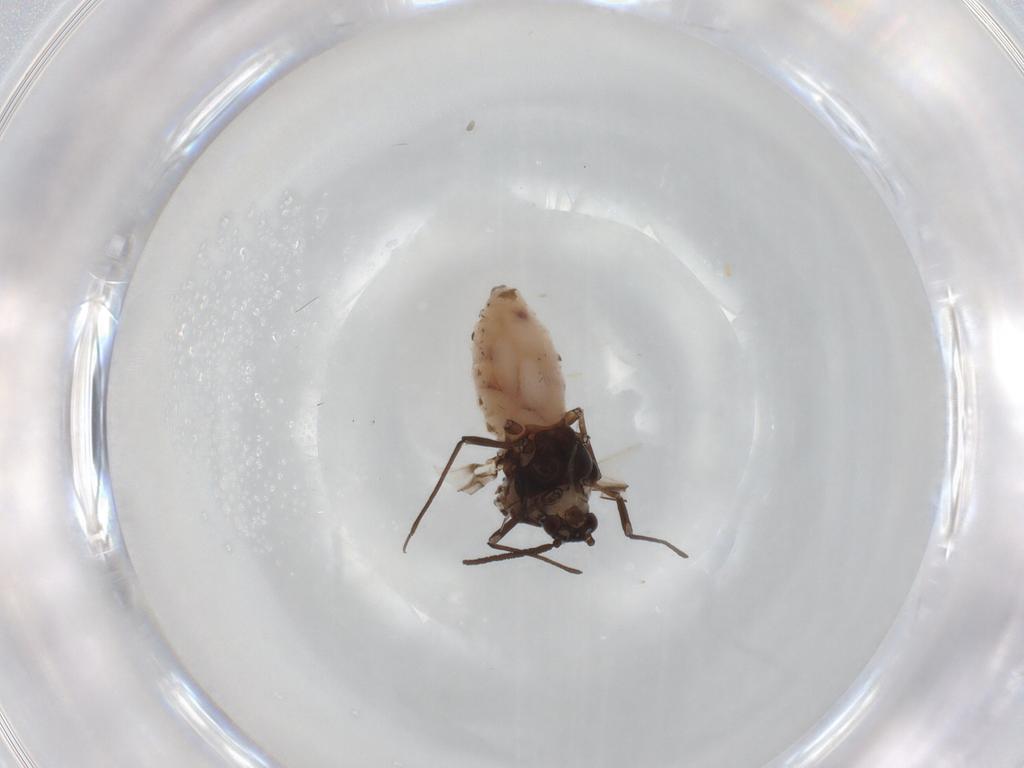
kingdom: Animalia
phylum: Arthropoda
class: Insecta
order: Hemiptera
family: Aphididae
